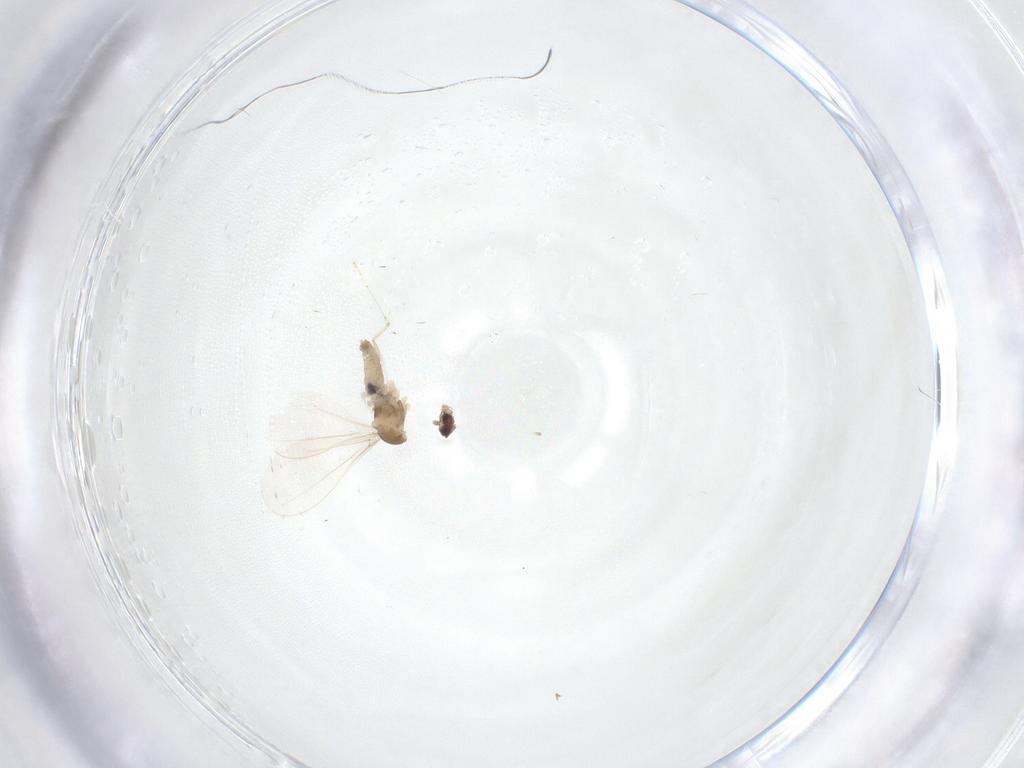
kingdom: Animalia
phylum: Arthropoda
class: Insecta
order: Diptera
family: Cecidomyiidae
